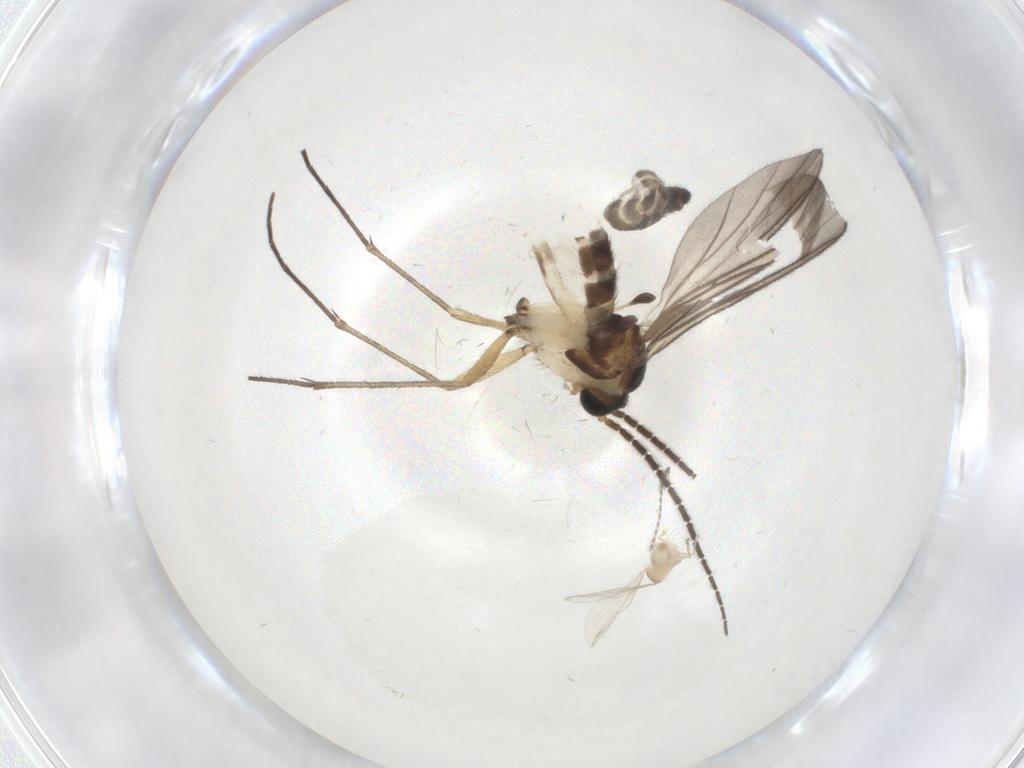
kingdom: Animalia
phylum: Arthropoda
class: Insecta
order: Diptera
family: Cecidomyiidae
